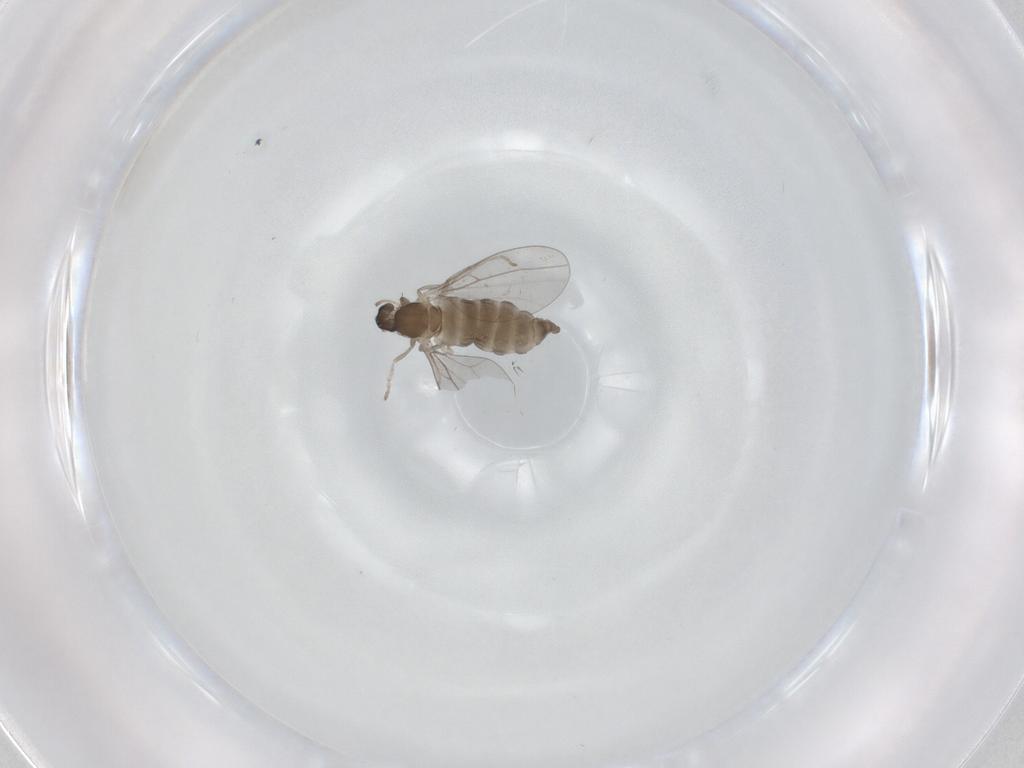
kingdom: Animalia
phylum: Arthropoda
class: Insecta
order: Diptera
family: Cecidomyiidae
